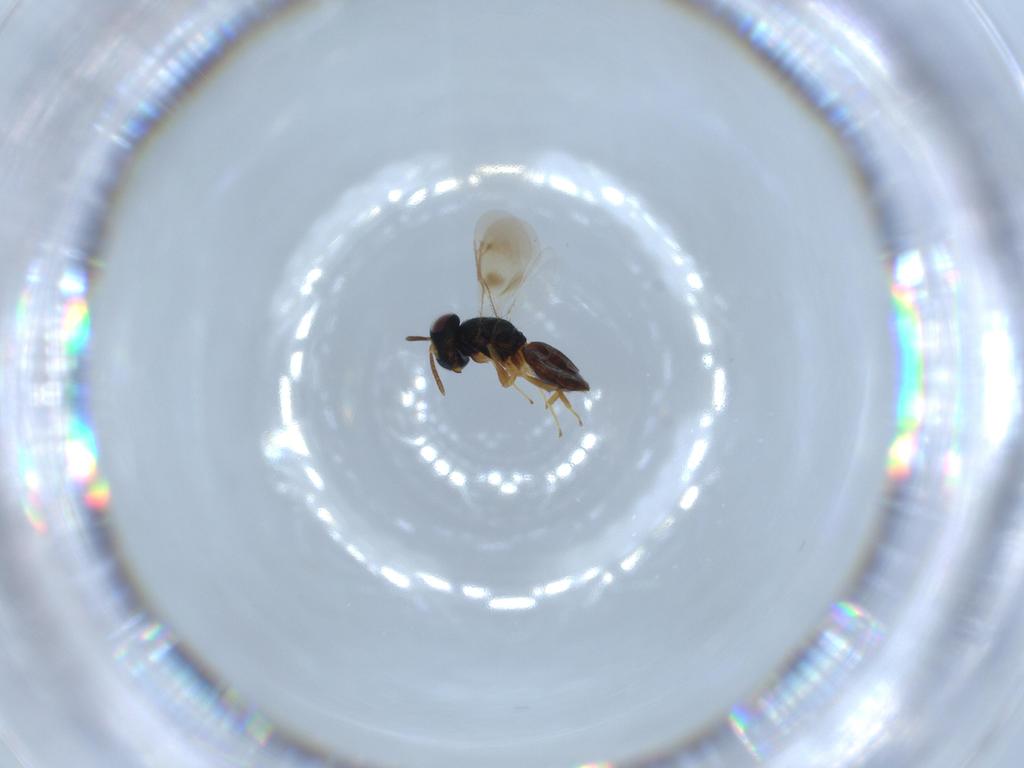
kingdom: Animalia
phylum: Arthropoda
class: Insecta
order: Hymenoptera
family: Pteromalidae
